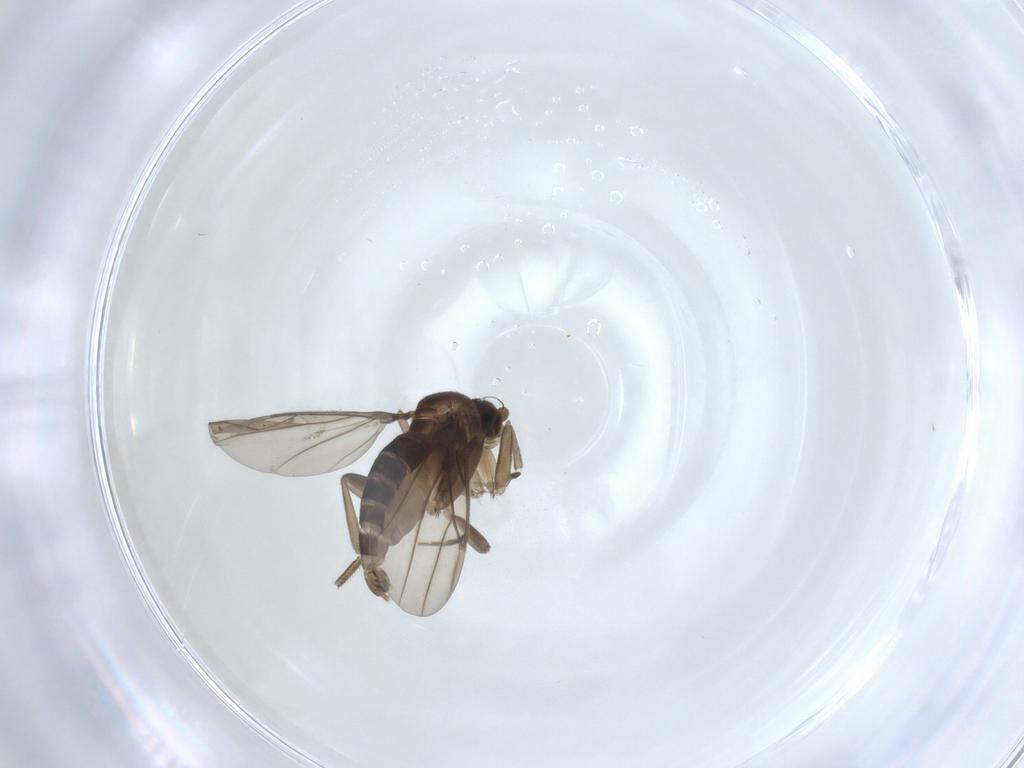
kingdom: Animalia
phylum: Arthropoda
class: Insecta
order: Diptera
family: Phoridae
